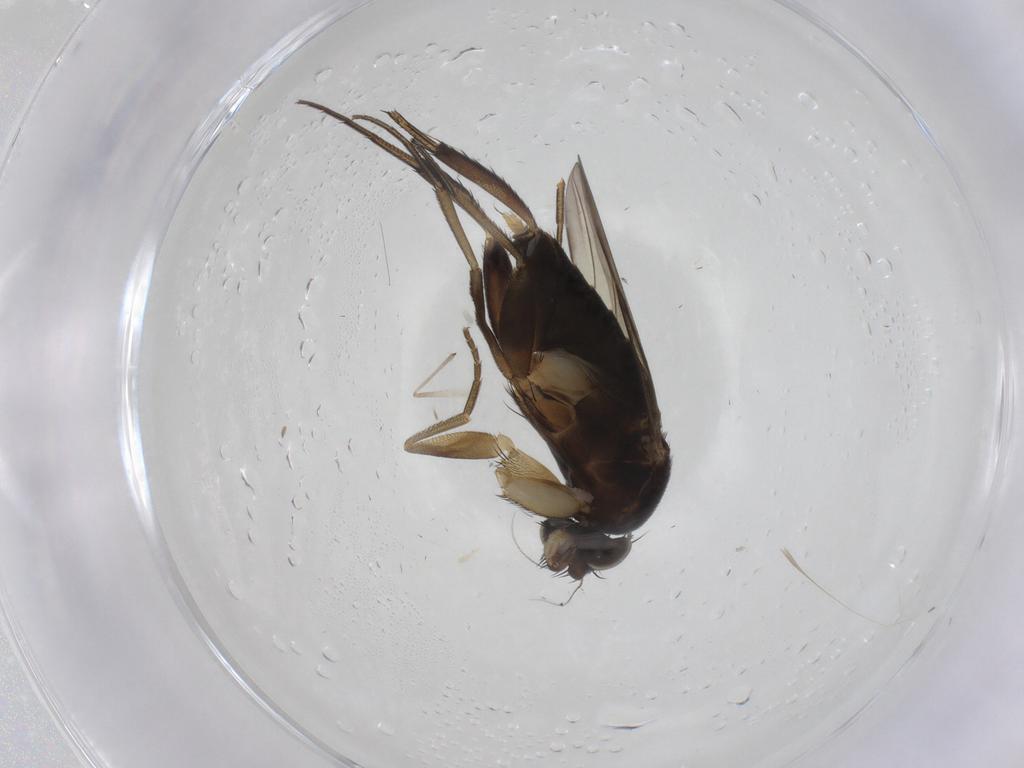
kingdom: Animalia
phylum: Arthropoda
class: Insecta
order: Diptera
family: Phoridae
